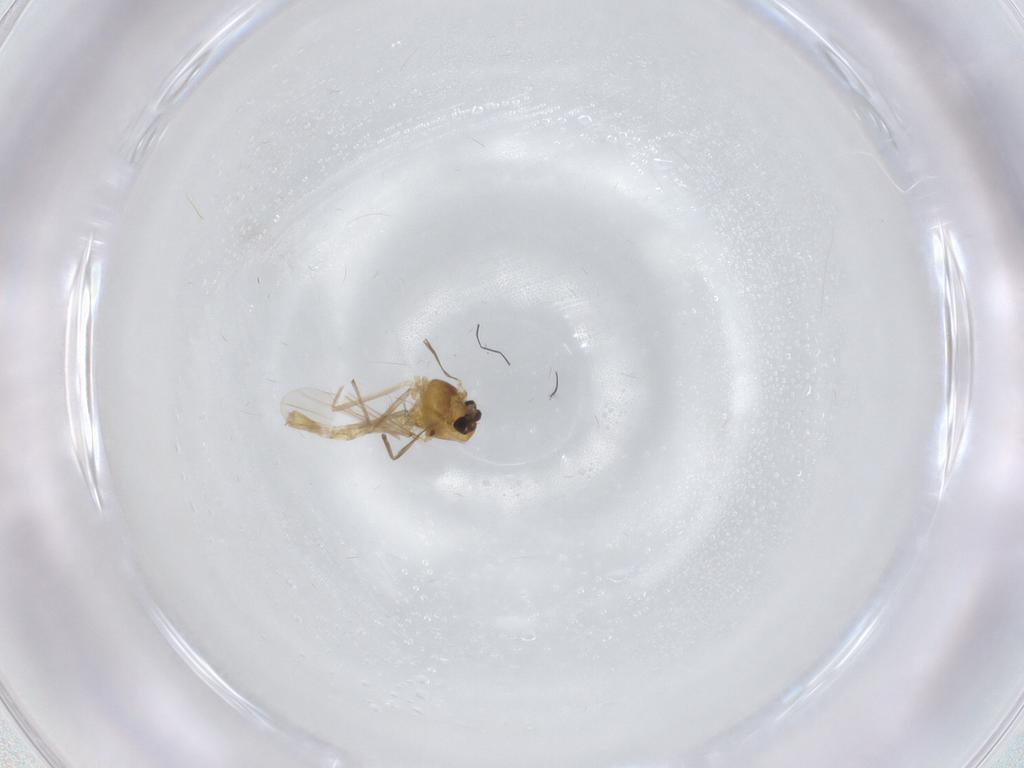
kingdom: Animalia
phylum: Arthropoda
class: Insecta
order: Diptera
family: Chironomidae
